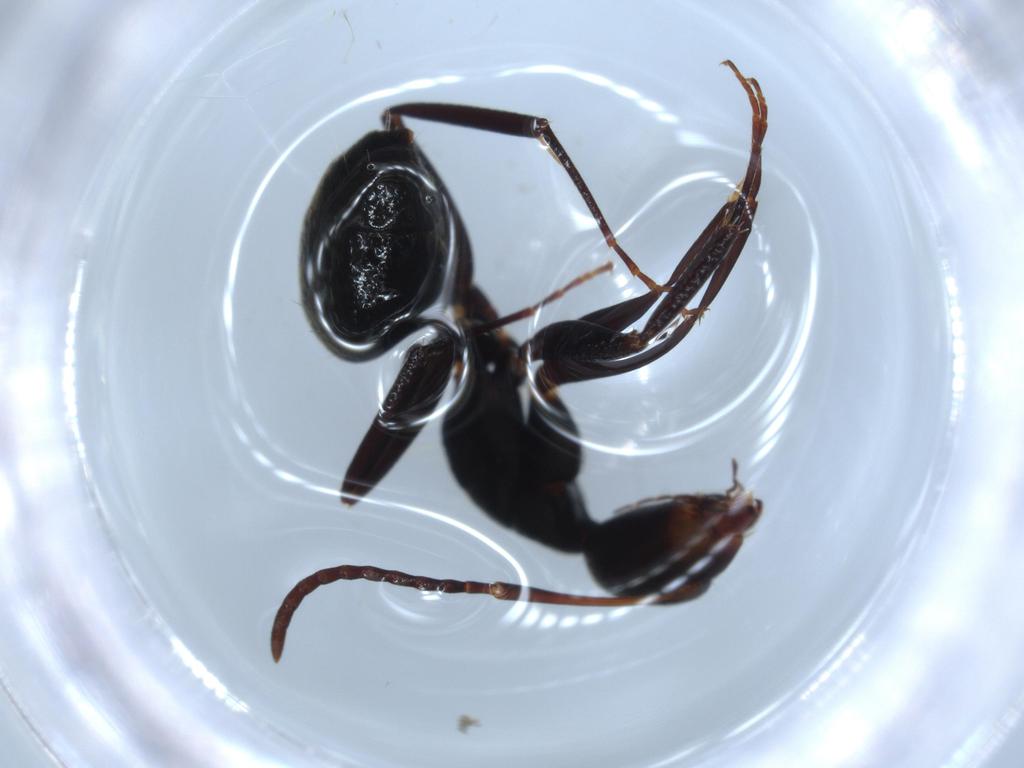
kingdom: Animalia
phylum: Arthropoda
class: Insecta
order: Hymenoptera
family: Formicidae
